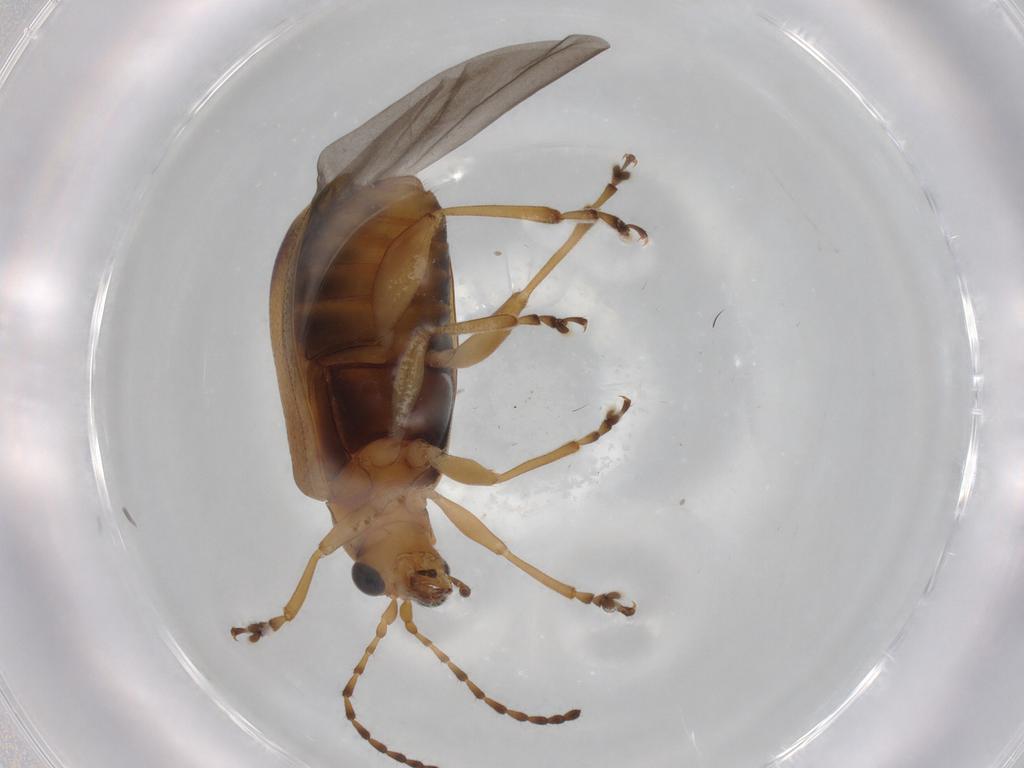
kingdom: Animalia
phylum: Arthropoda
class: Insecta
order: Coleoptera
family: Chrysomelidae
